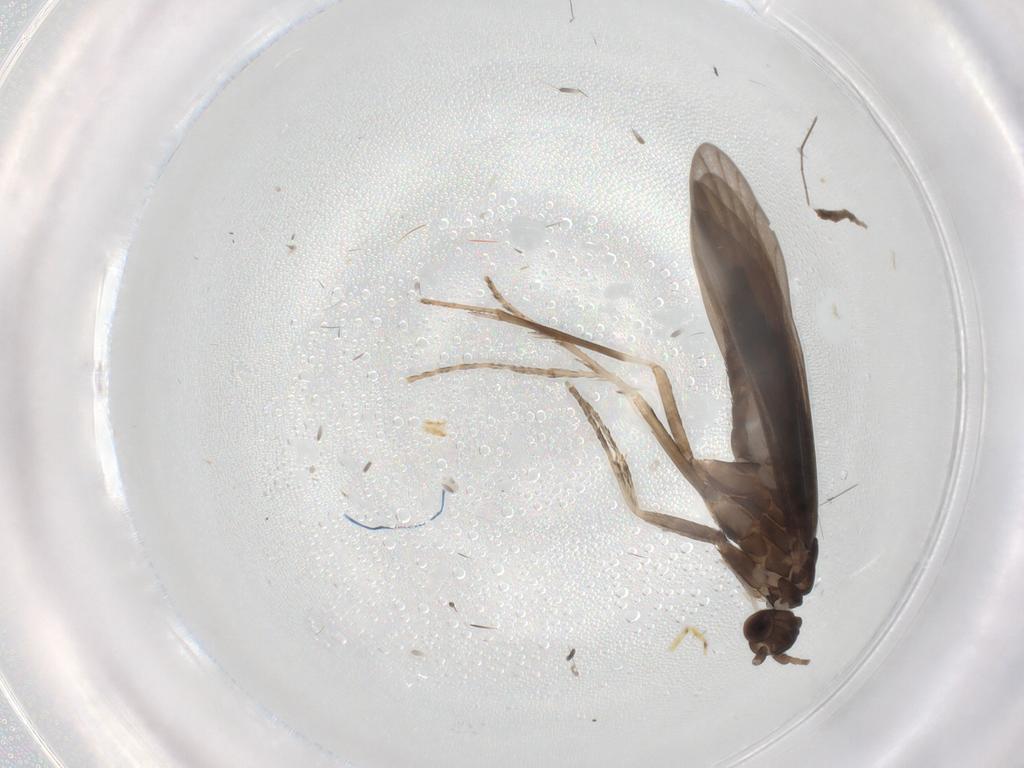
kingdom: Animalia
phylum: Arthropoda
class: Insecta
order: Trichoptera
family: Xiphocentronidae
